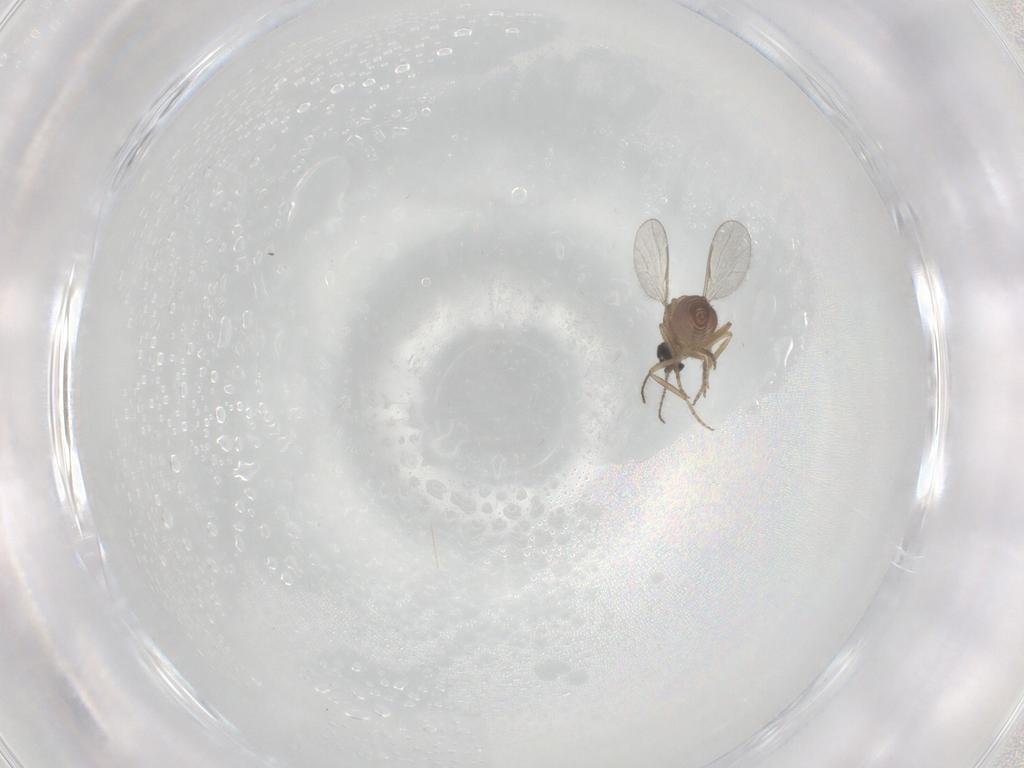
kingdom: Animalia
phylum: Arthropoda
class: Insecta
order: Diptera
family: Ceratopogonidae
